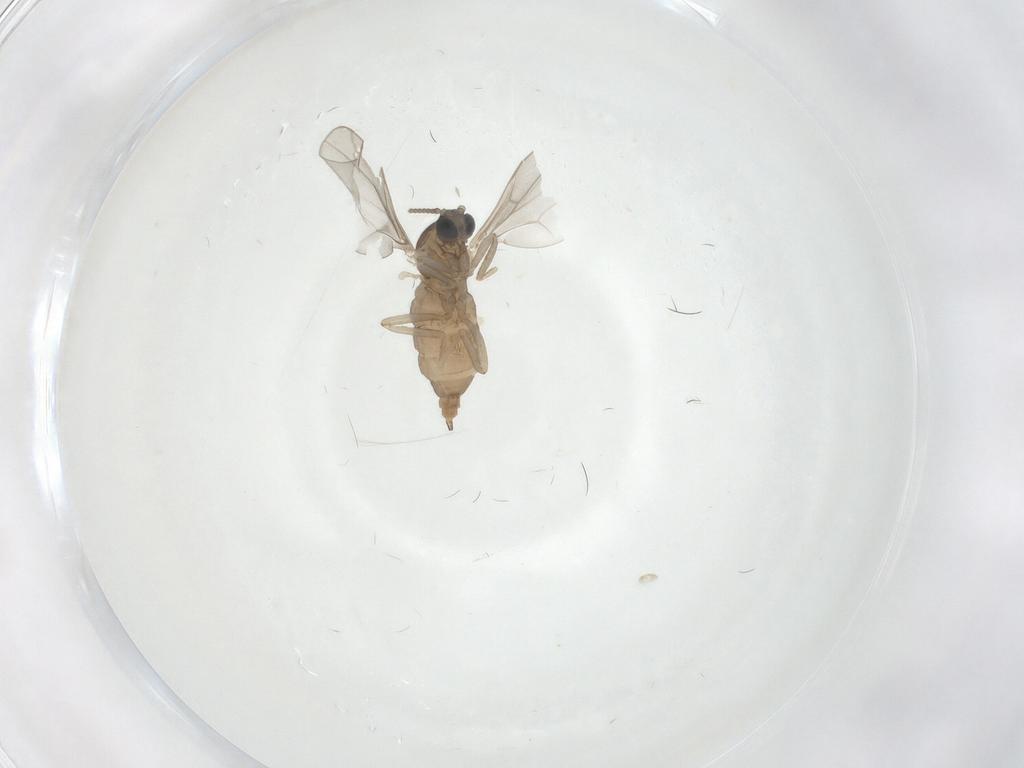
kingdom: Animalia
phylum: Arthropoda
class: Insecta
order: Diptera
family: Cecidomyiidae
